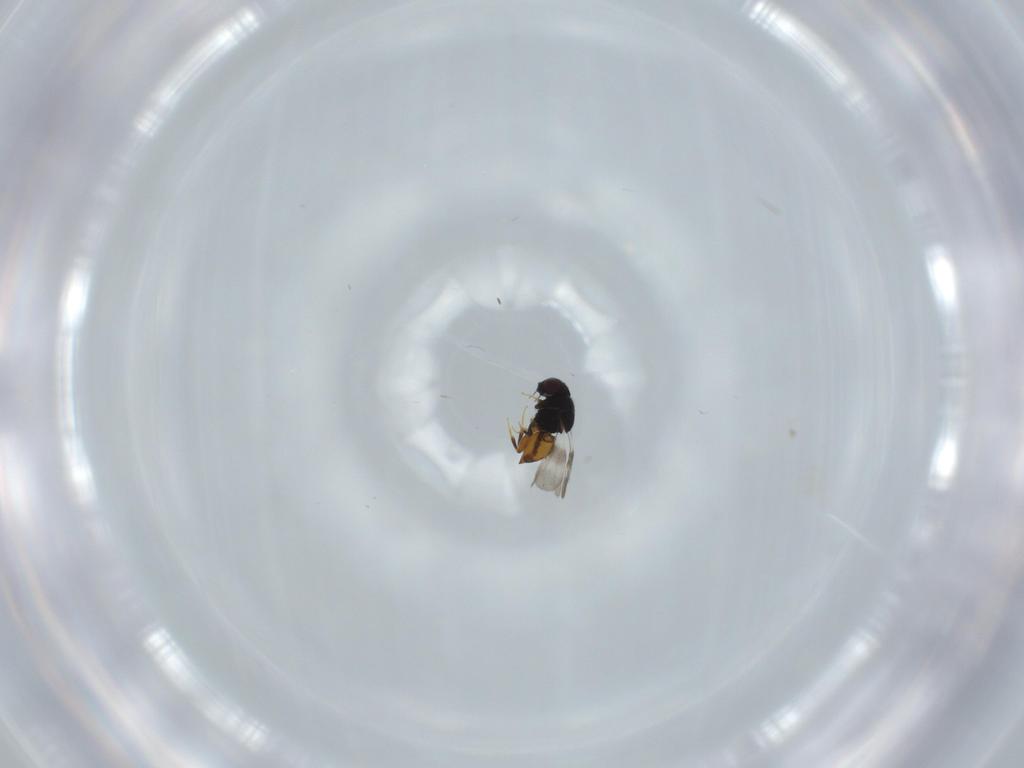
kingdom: Animalia
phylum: Arthropoda
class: Insecta
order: Hymenoptera
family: Ceraphronidae
